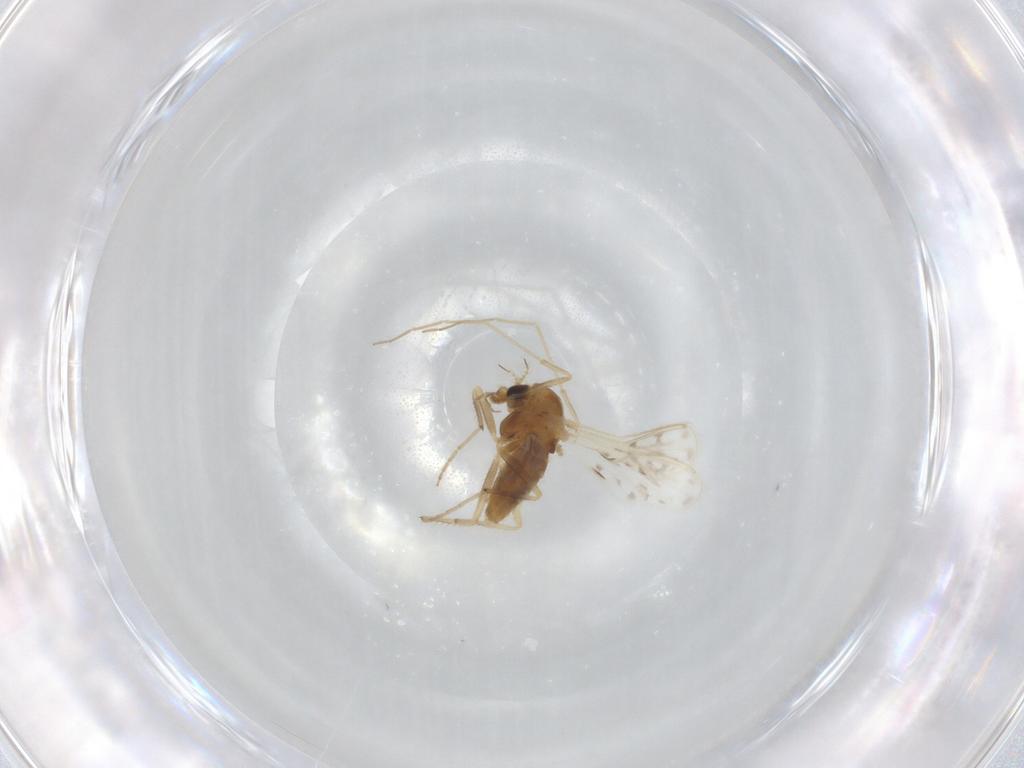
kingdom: Animalia
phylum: Arthropoda
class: Insecta
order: Diptera
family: Chironomidae
